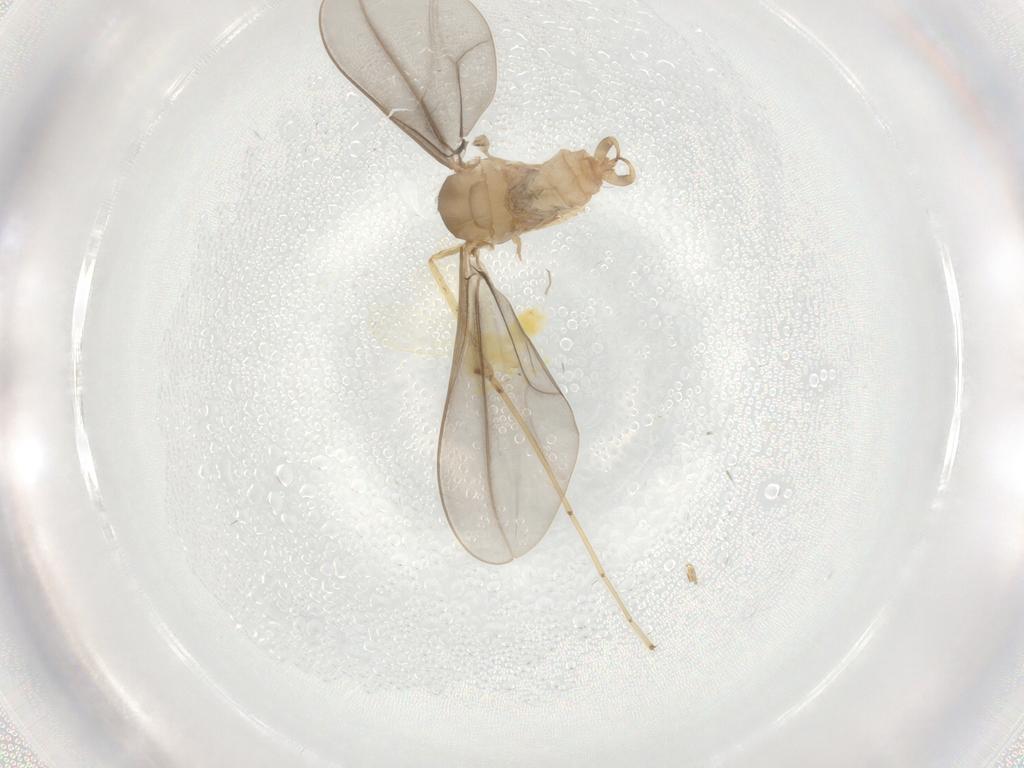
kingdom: Animalia
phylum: Arthropoda
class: Insecta
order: Diptera
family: Cecidomyiidae
